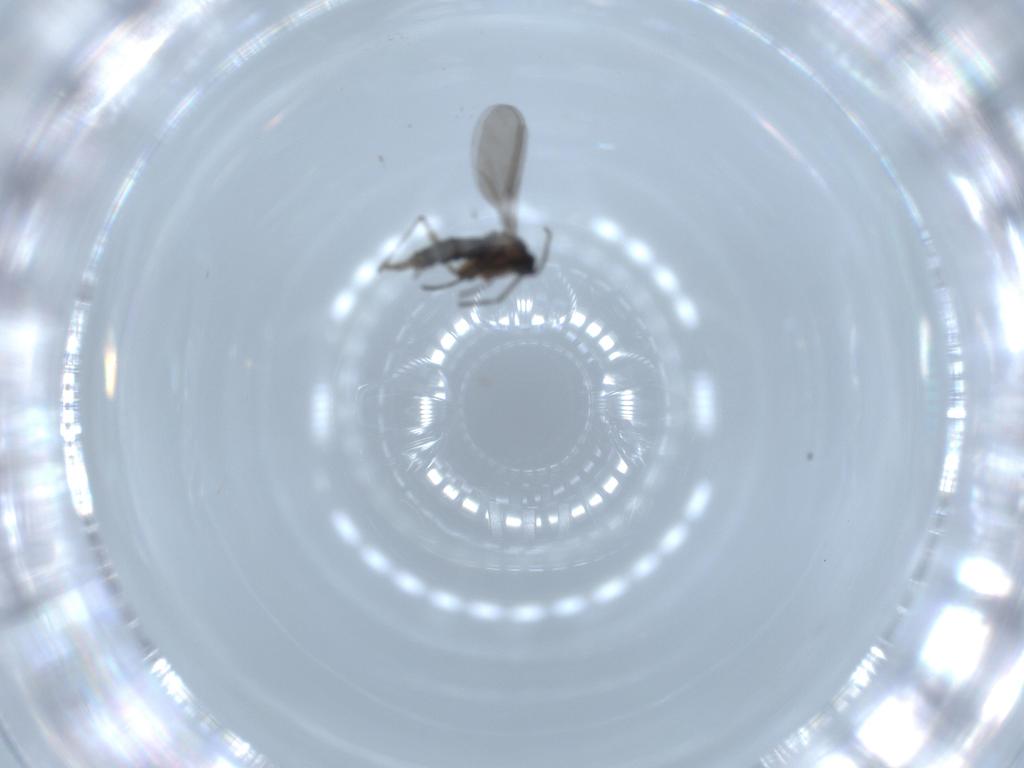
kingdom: Animalia
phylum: Arthropoda
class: Insecta
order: Diptera
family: Sciaridae
